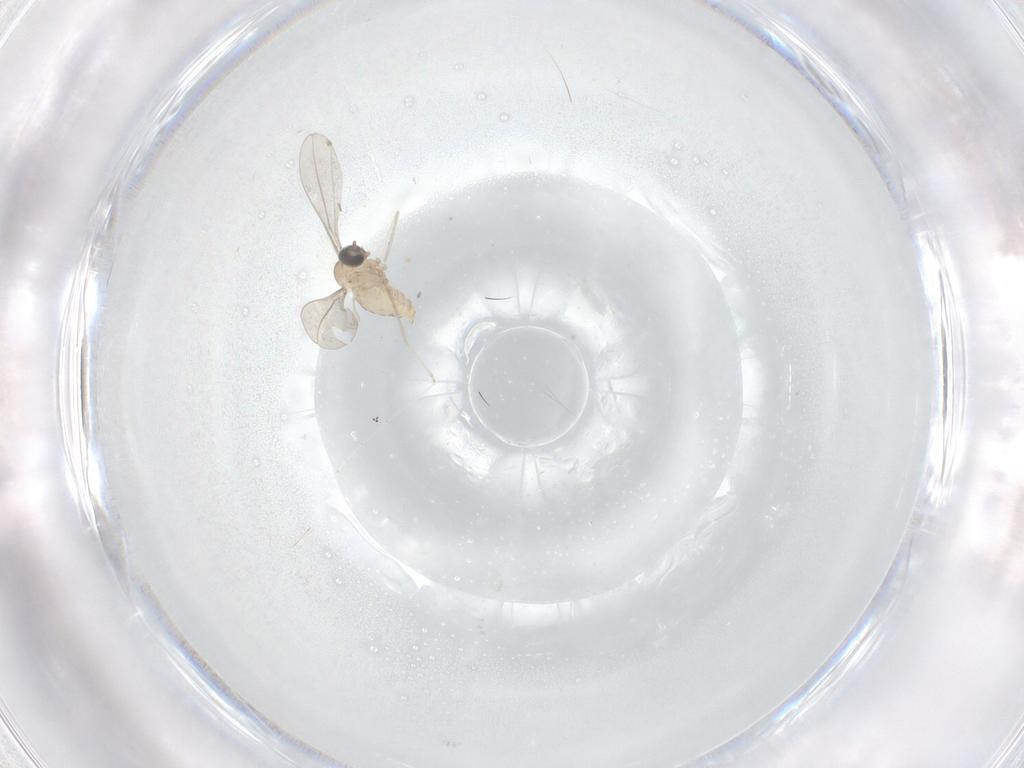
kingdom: Animalia
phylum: Arthropoda
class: Insecta
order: Diptera
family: Cecidomyiidae
